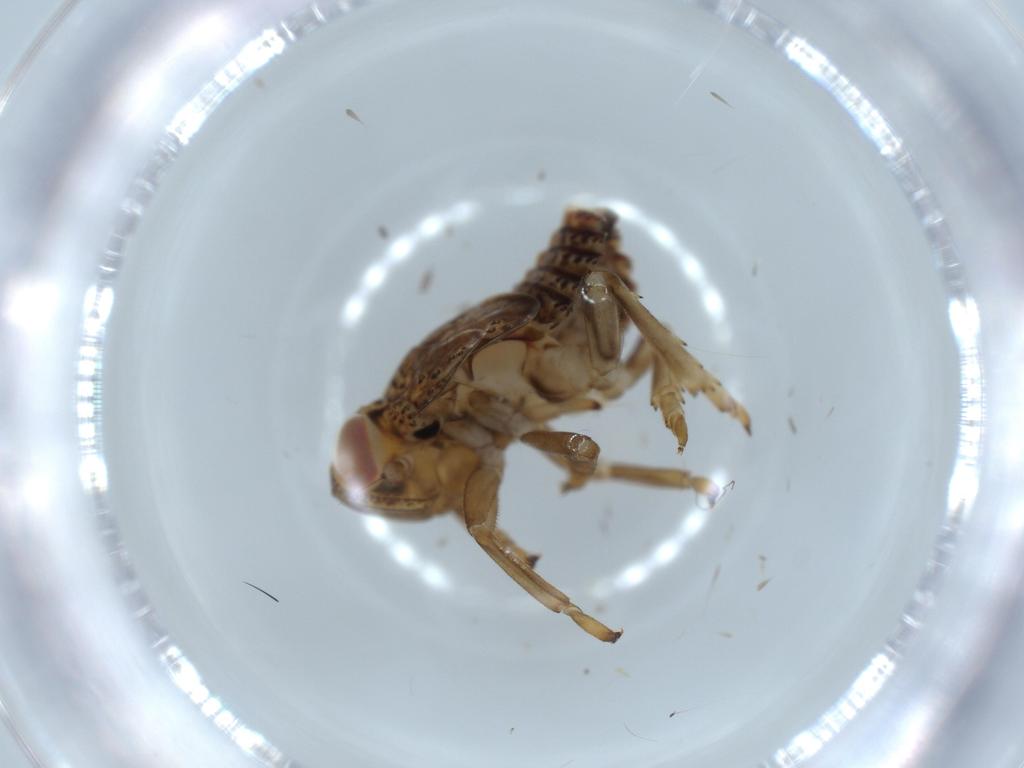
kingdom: Animalia
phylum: Arthropoda
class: Insecta
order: Hemiptera
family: Issidae
